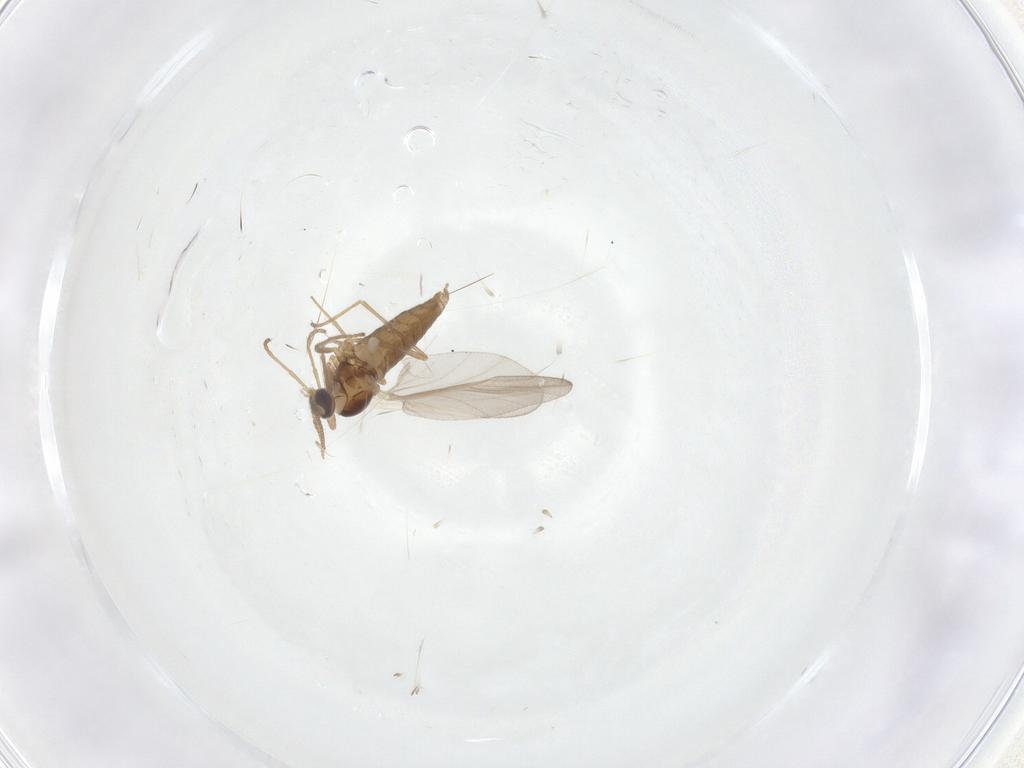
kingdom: Animalia
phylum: Arthropoda
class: Insecta
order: Diptera
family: Cecidomyiidae
